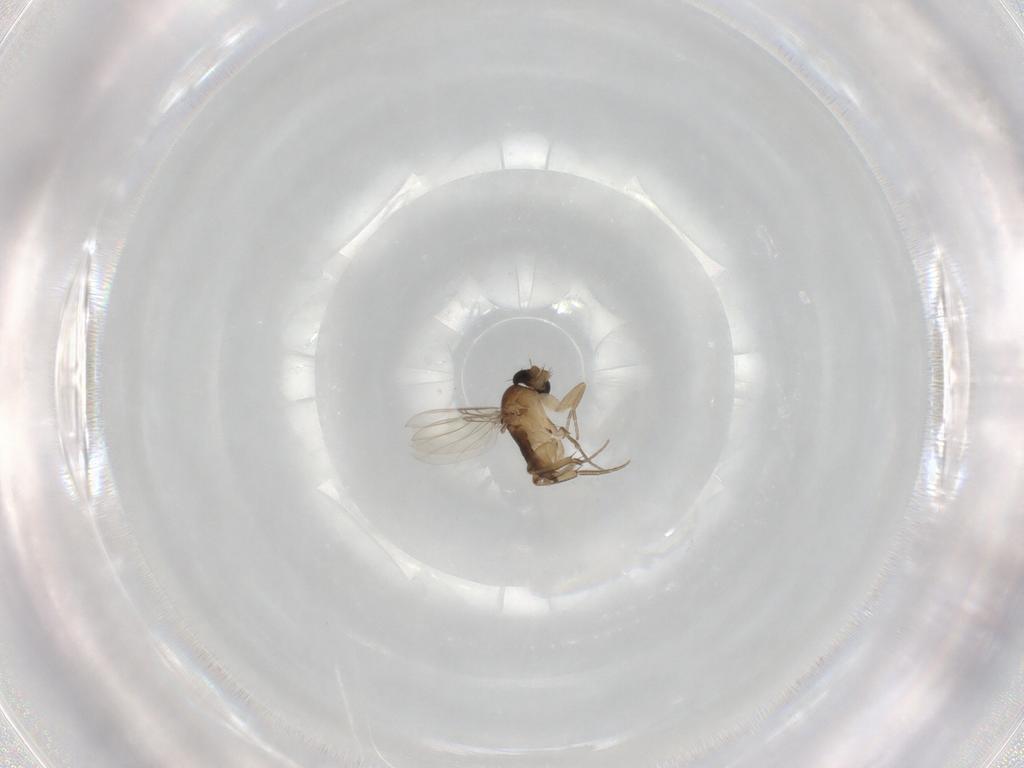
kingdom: Animalia
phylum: Arthropoda
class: Insecta
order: Diptera
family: Phoridae
